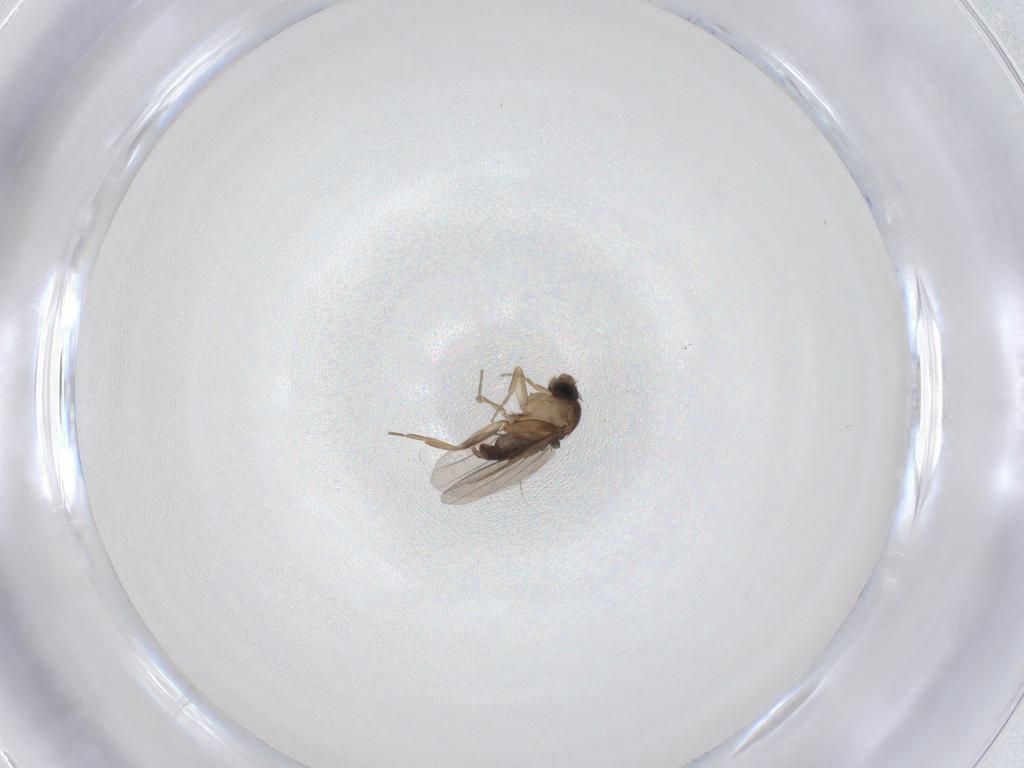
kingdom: Animalia
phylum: Arthropoda
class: Insecta
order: Diptera
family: Phoridae
